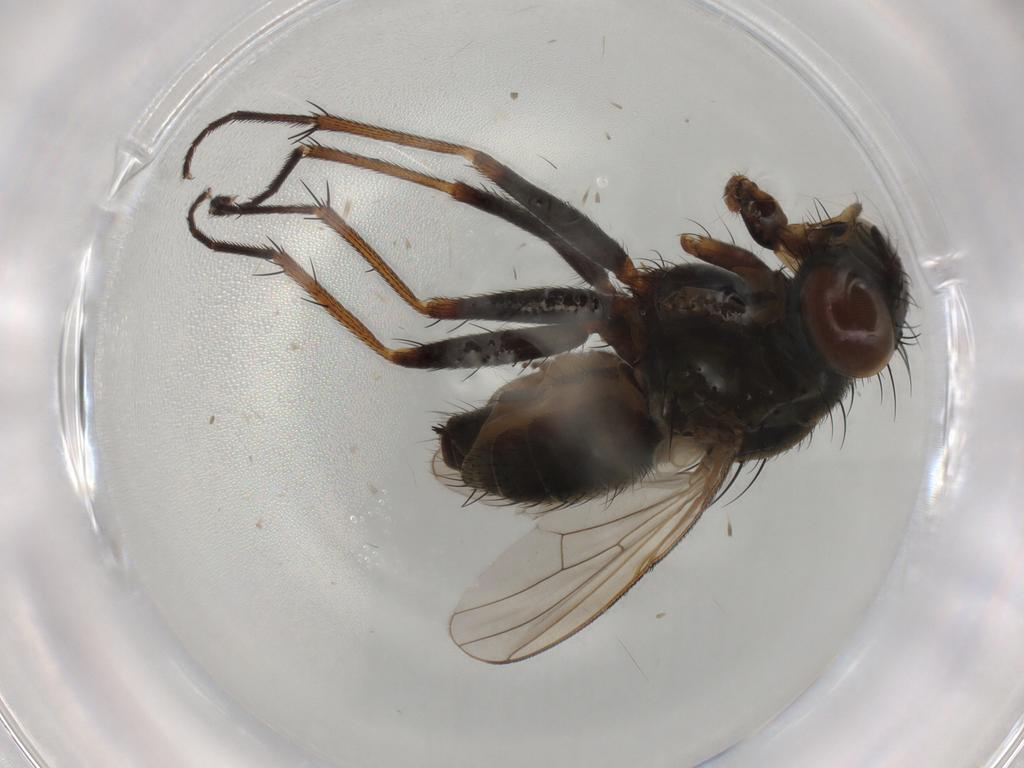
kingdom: Animalia
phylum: Arthropoda
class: Insecta
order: Diptera
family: Muscidae
